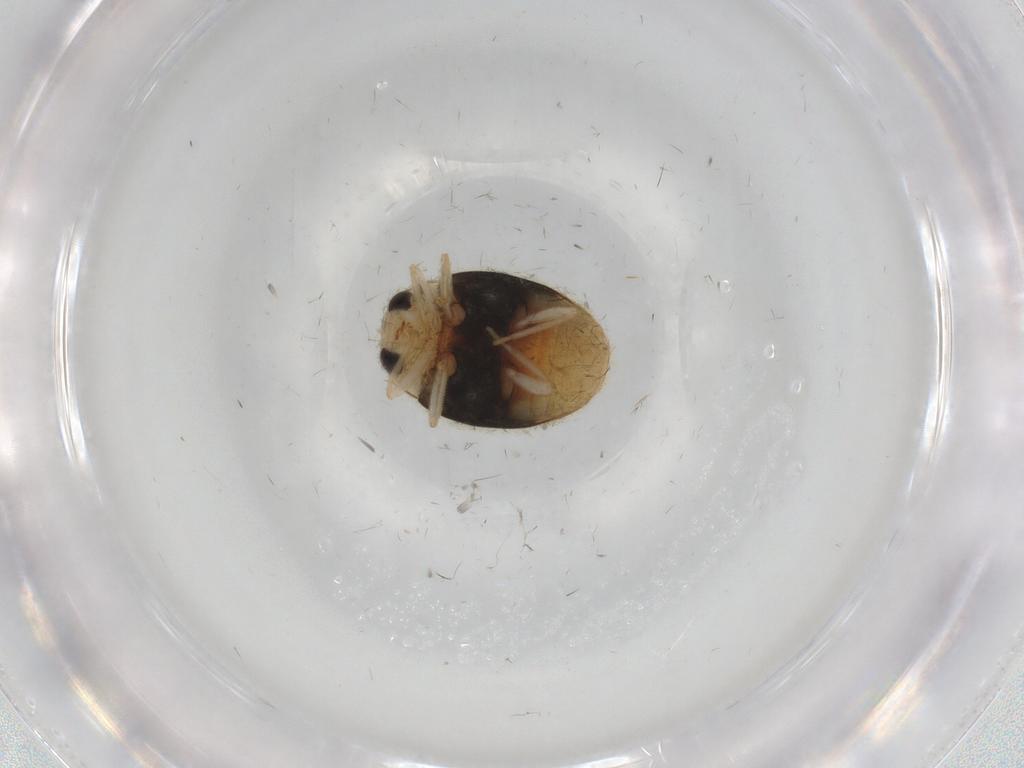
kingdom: Animalia
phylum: Arthropoda
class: Insecta
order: Coleoptera
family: Coccinellidae
